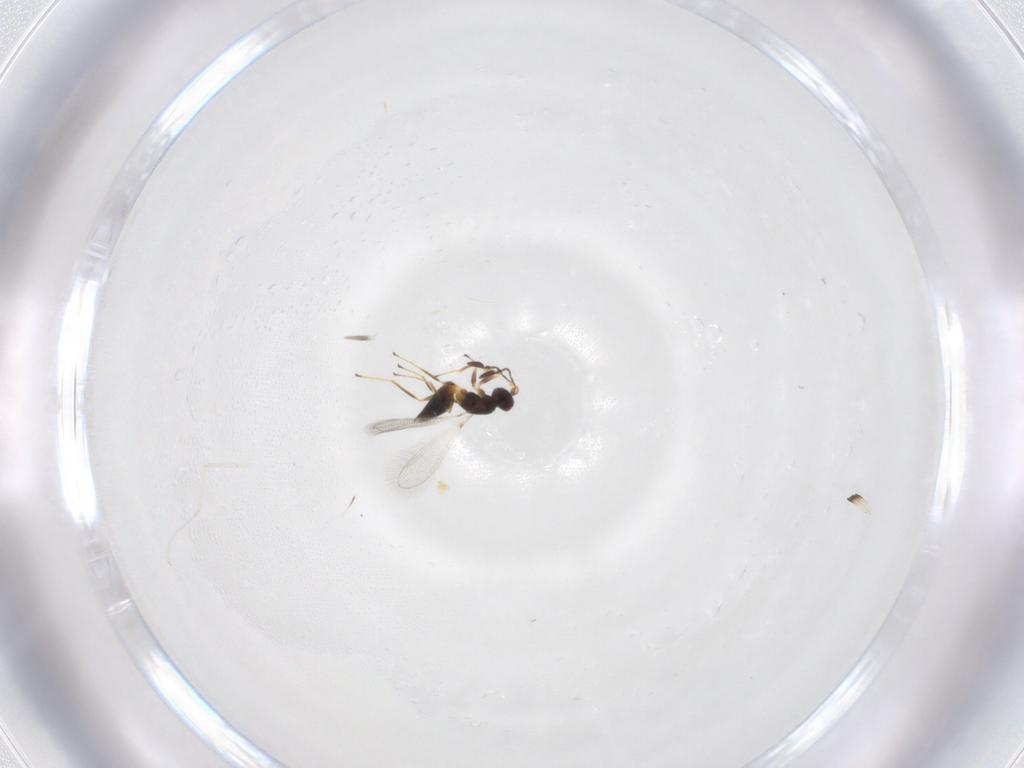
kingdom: Animalia
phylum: Arthropoda
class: Insecta
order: Hymenoptera
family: Mymaridae
